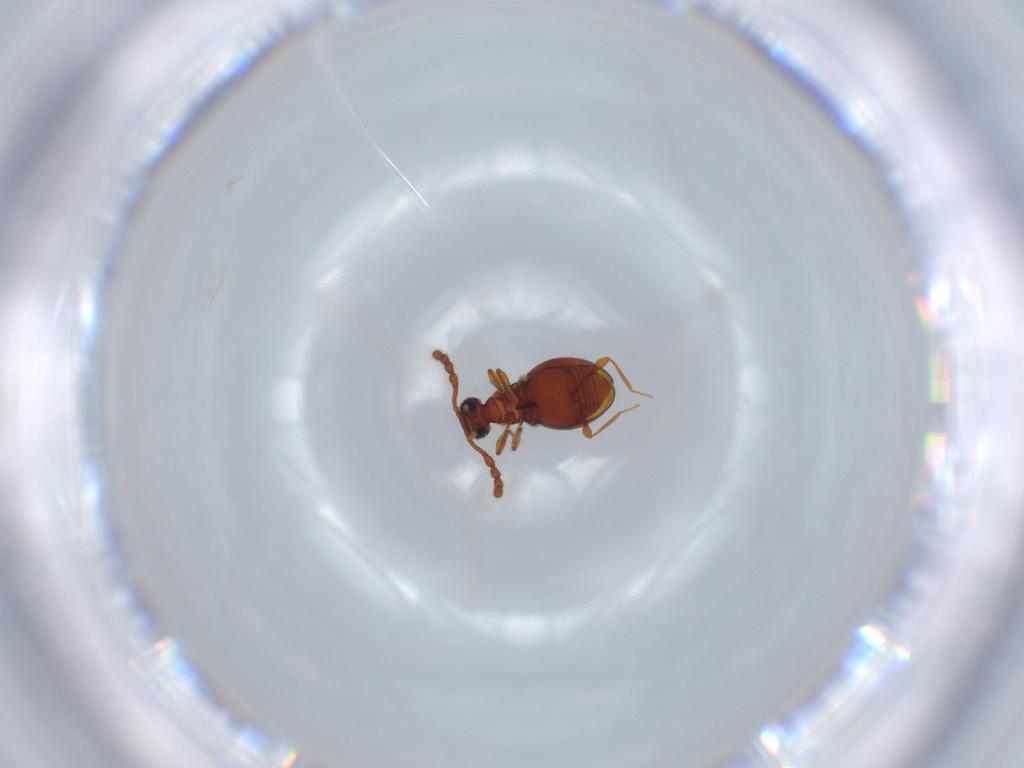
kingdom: Animalia
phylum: Arthropoda
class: Insecta
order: Coleoptera
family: Staphylinidae
